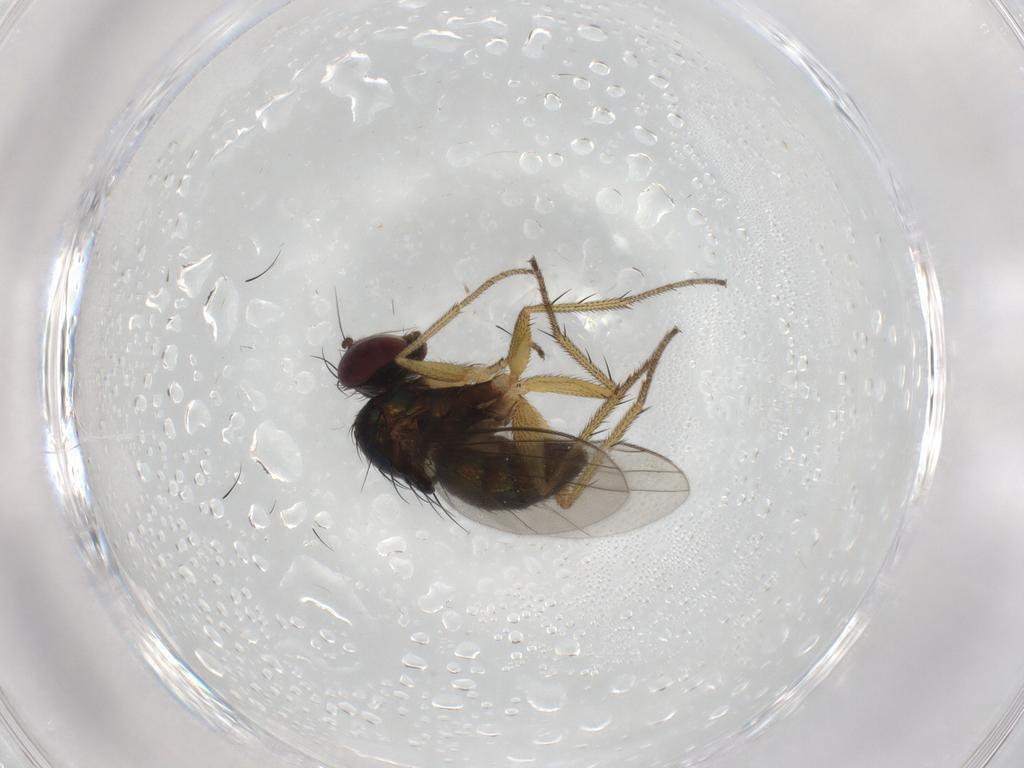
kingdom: Animalia
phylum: Arthropoda
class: Insecta
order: Diptera
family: Dolichopodidae
